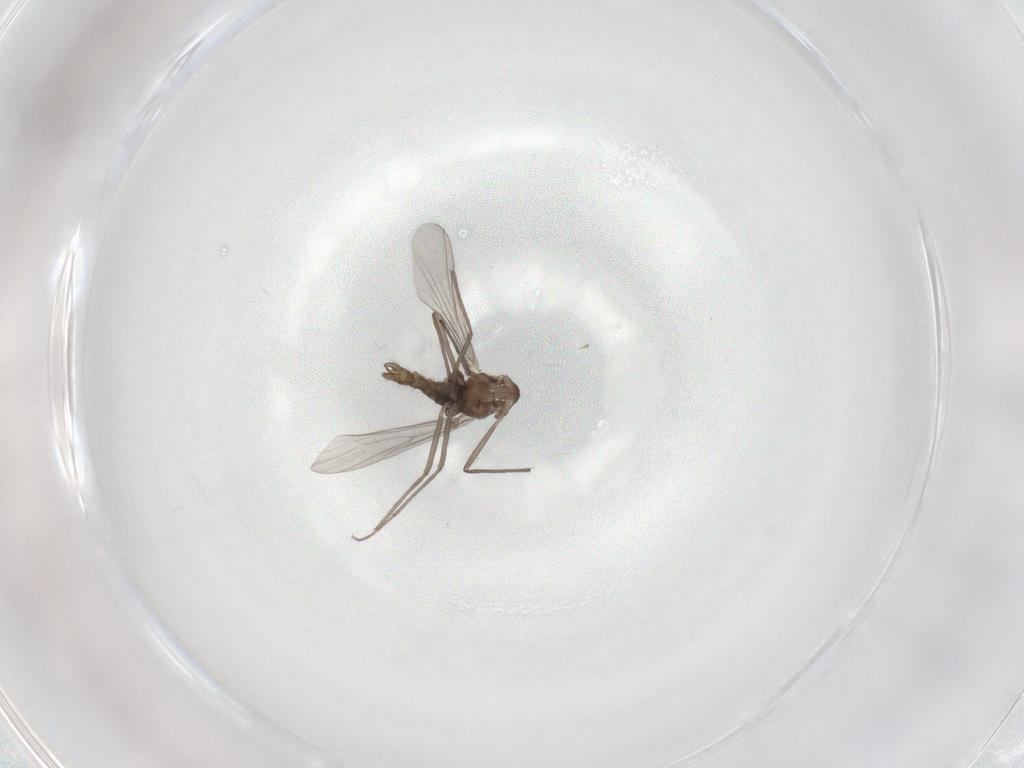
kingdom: Animalia
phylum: Arthropoda
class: Insecta
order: Diptera
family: Chironomidae
